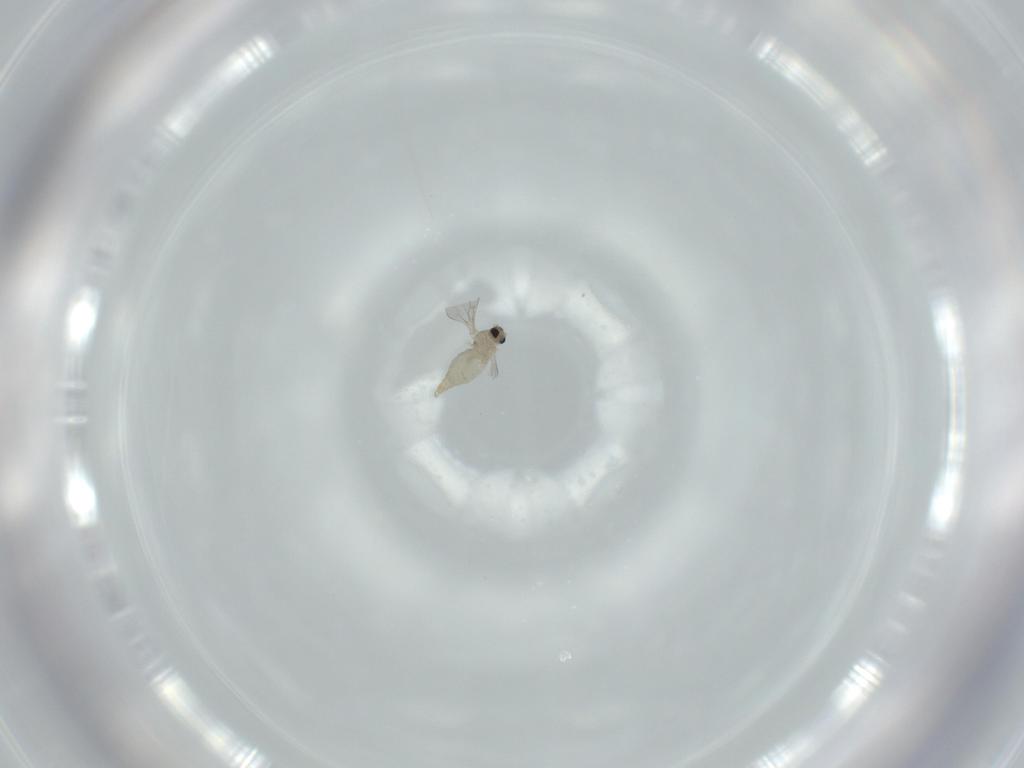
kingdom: Animalia
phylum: Arthropoda
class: Insecta
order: Diptera
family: Cecidomyiidae
